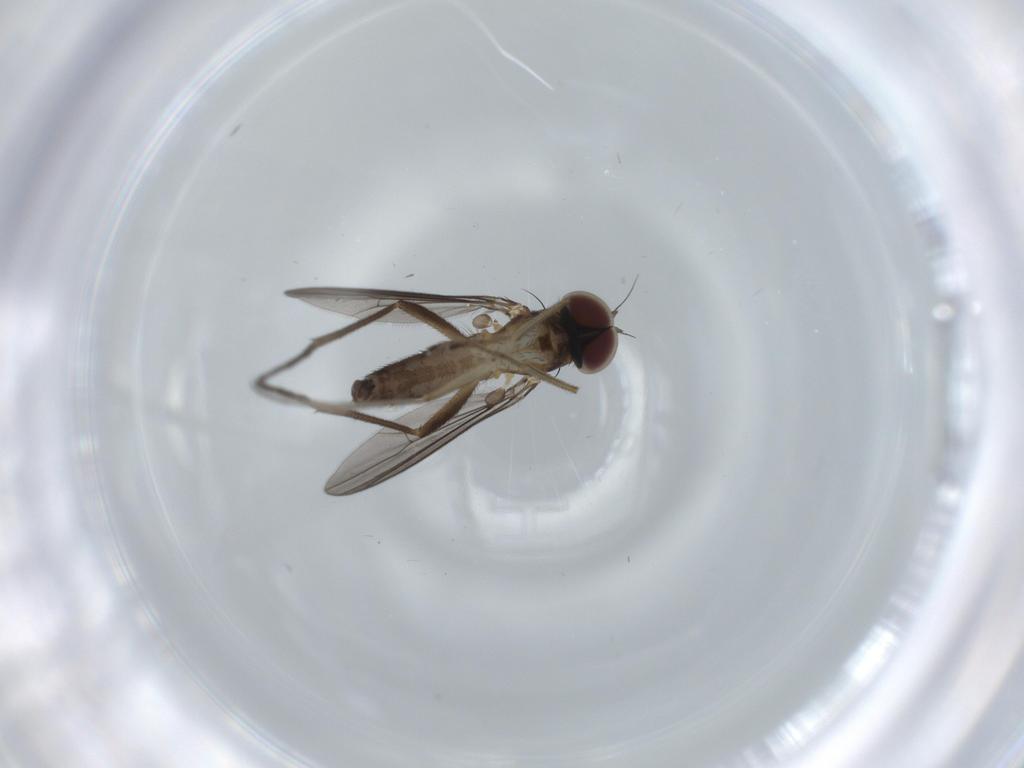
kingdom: Animalia
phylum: Arthropoda
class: Insecta
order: Diptera
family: Dolichopodidae
